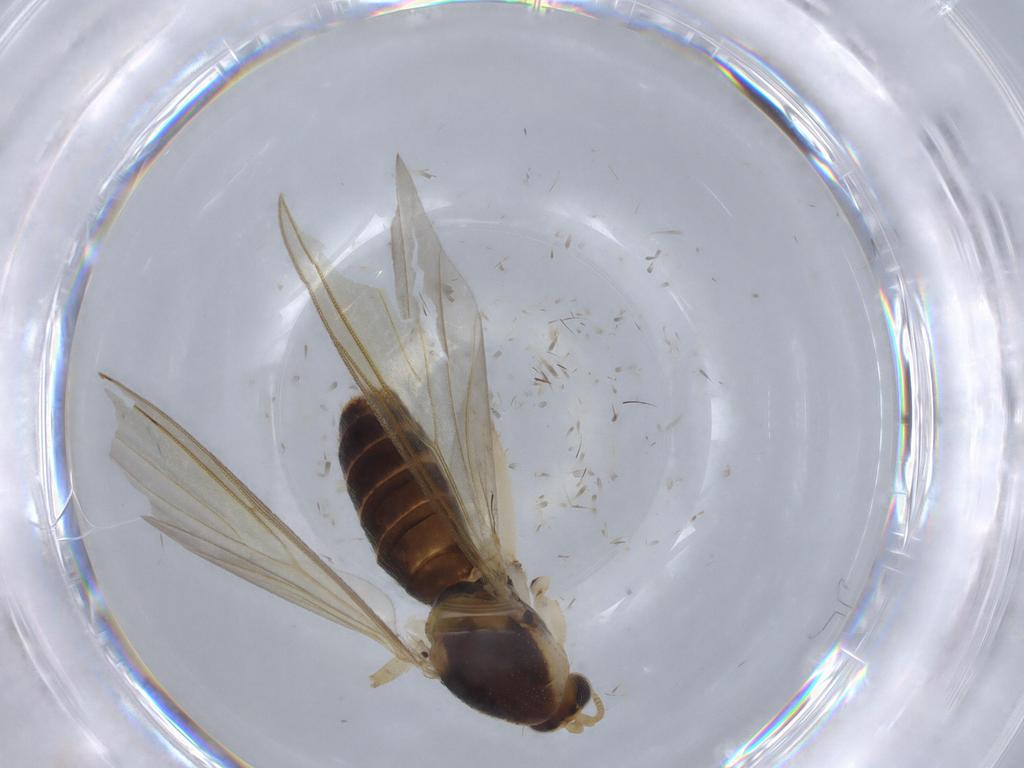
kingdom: Animalia
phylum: Arthropoda
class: Insecta
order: Diptera
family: Phoridae
